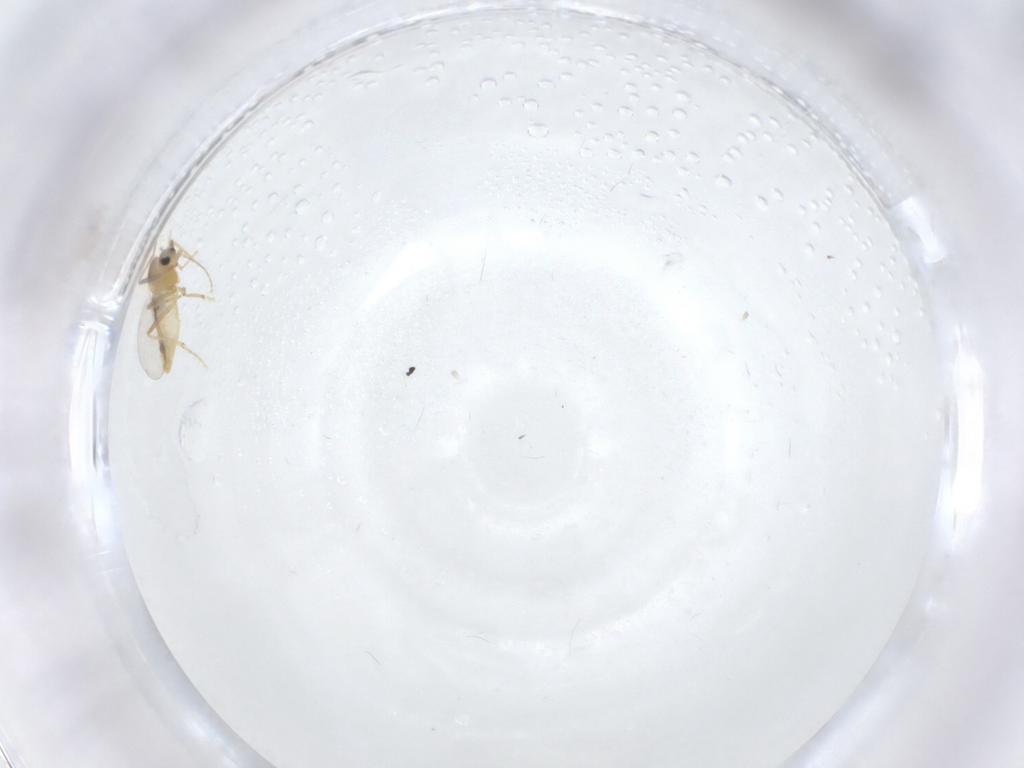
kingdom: Animalia
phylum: Arthropoda
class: Insecta
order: Diptera
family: Chironomidae
